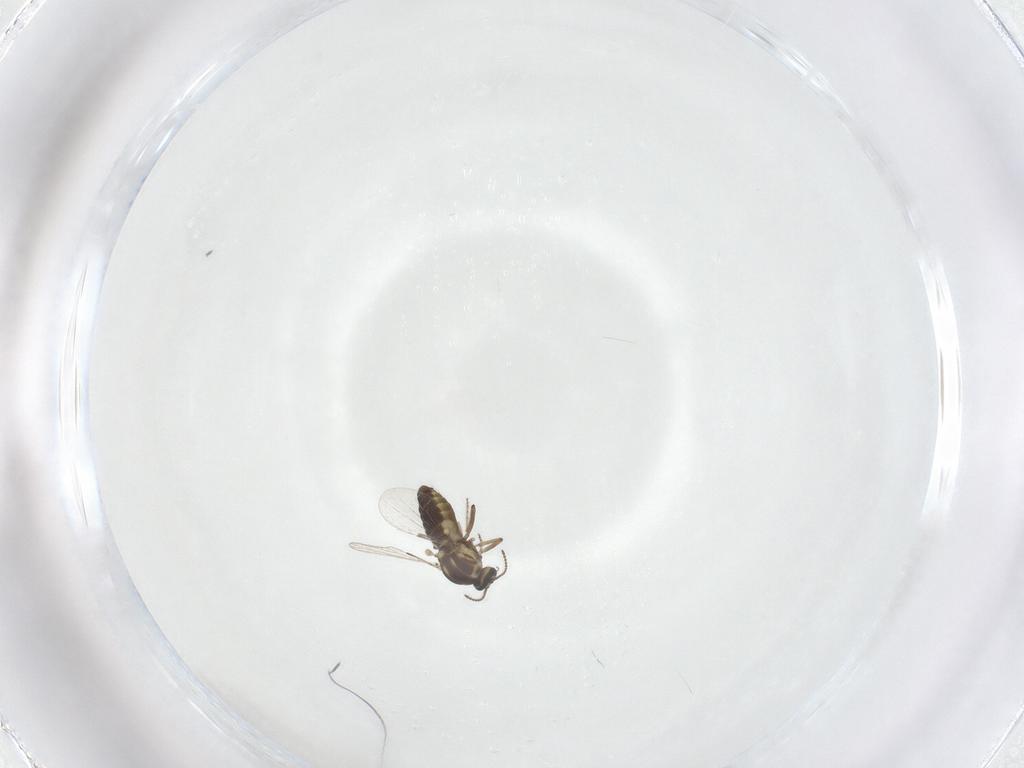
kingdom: Animalia
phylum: Arthropoda
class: Insecta
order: Diptera
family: Ceratopogonidae
